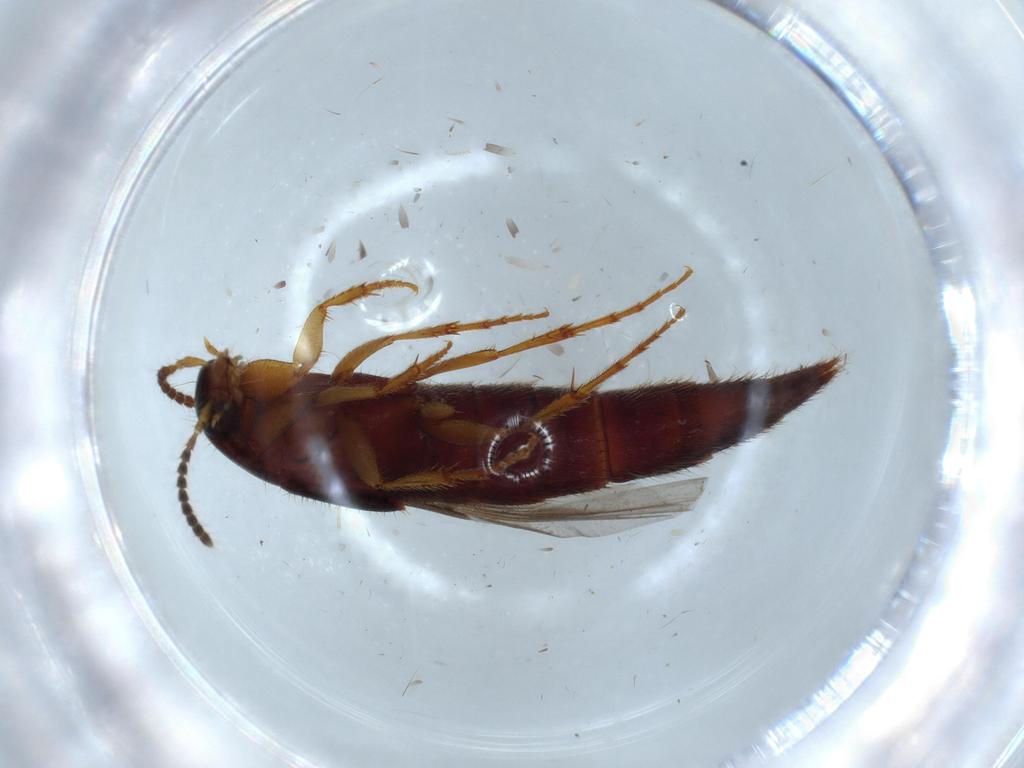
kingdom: Animalia
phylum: Arthropoda
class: Insecta
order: Coleoptera
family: Staphylinidae
